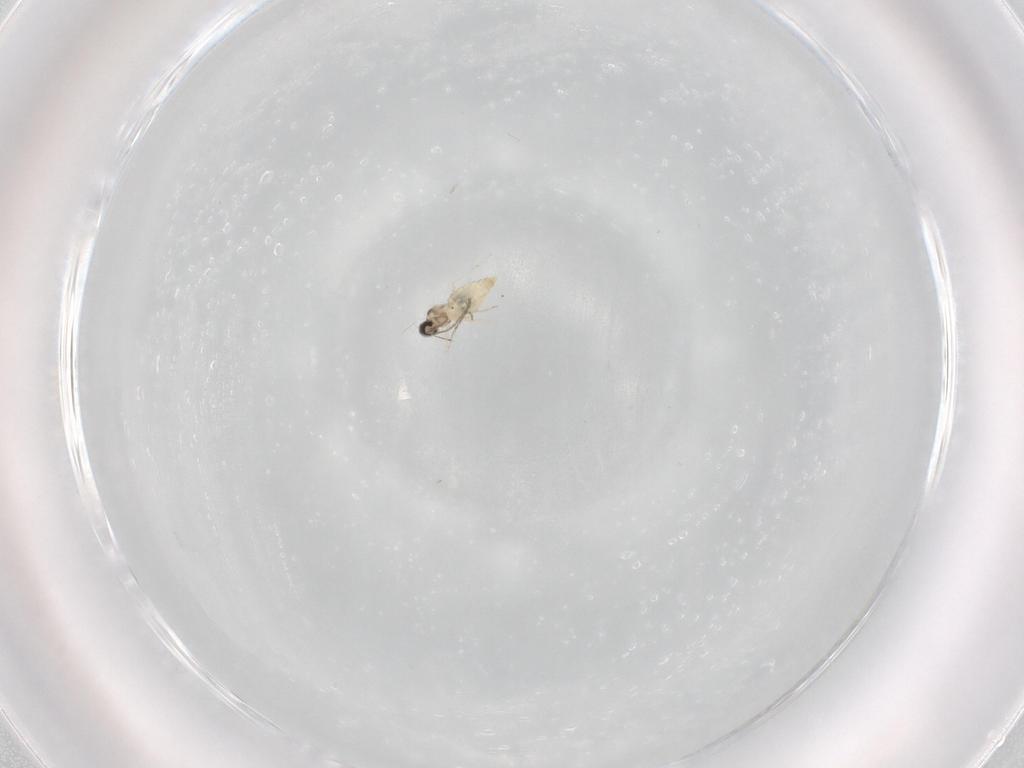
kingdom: Animalia
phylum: Arthropoda
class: Insecta
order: Diptera
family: Cecidomyiidae
